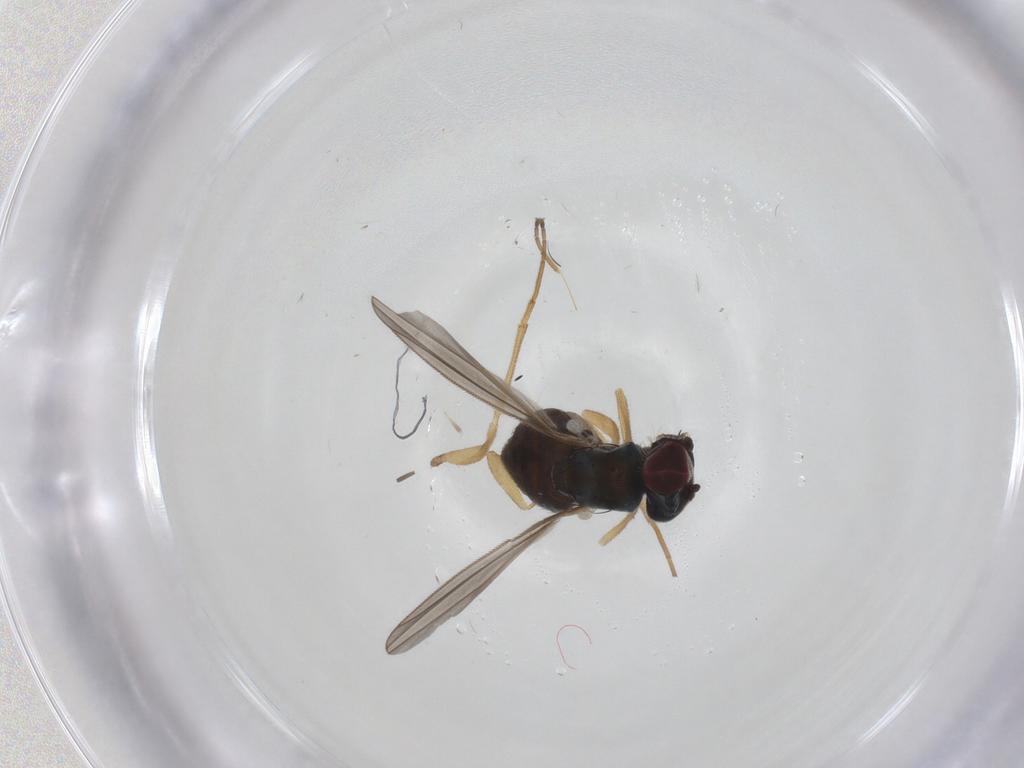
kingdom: Animalia
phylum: Arthropoda
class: Insecta
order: Diptera
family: Dolichopodidae
